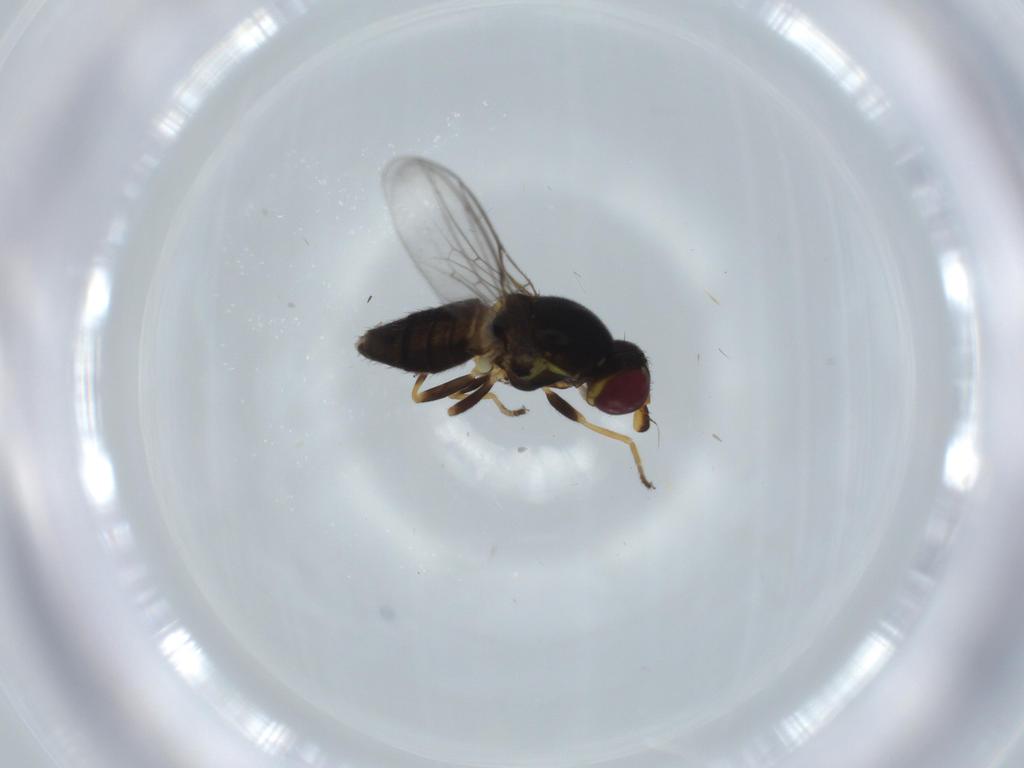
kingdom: Animalia
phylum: Arthropoda
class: Insecta
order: Diptera
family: Chloropidae
